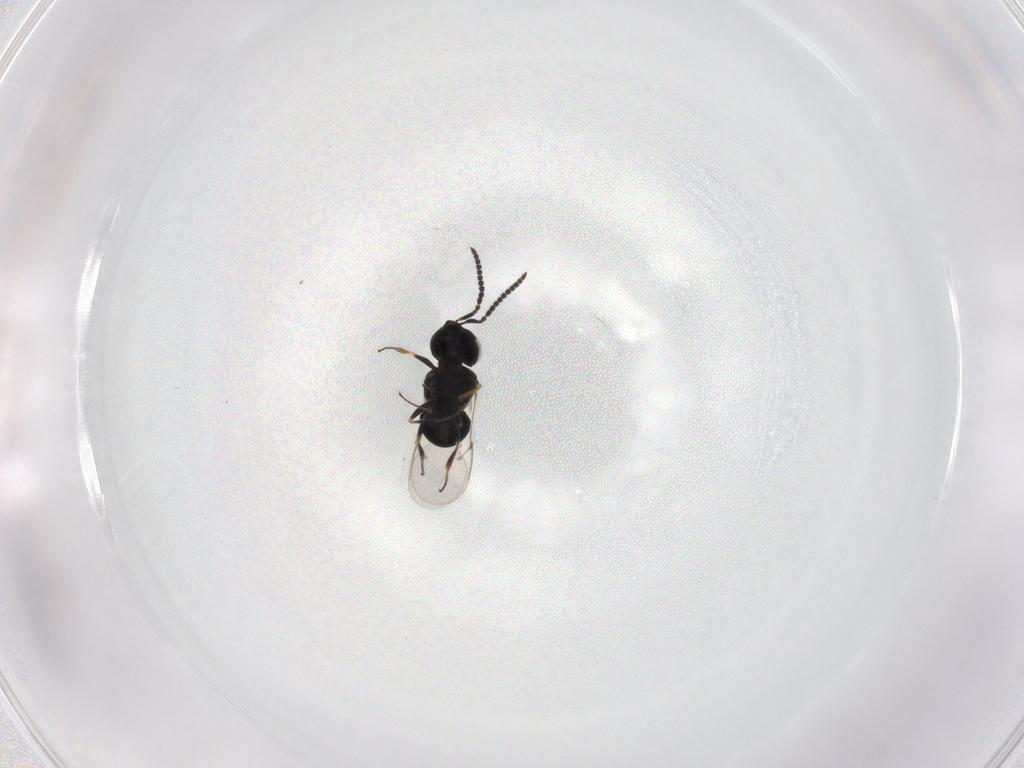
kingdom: Animalia
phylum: Arthropoda
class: Insecta
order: Hymenoptera
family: Scelionidae
